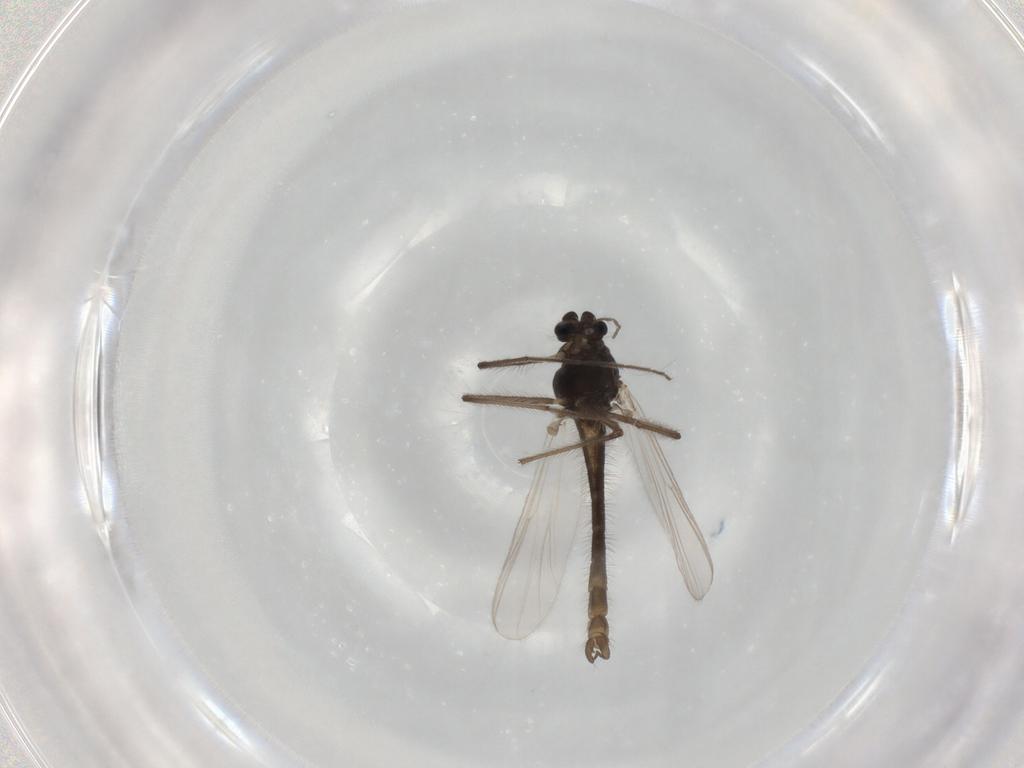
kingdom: Animalia
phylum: Arthropoda
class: Insecta
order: Diptera
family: Chironomidae
